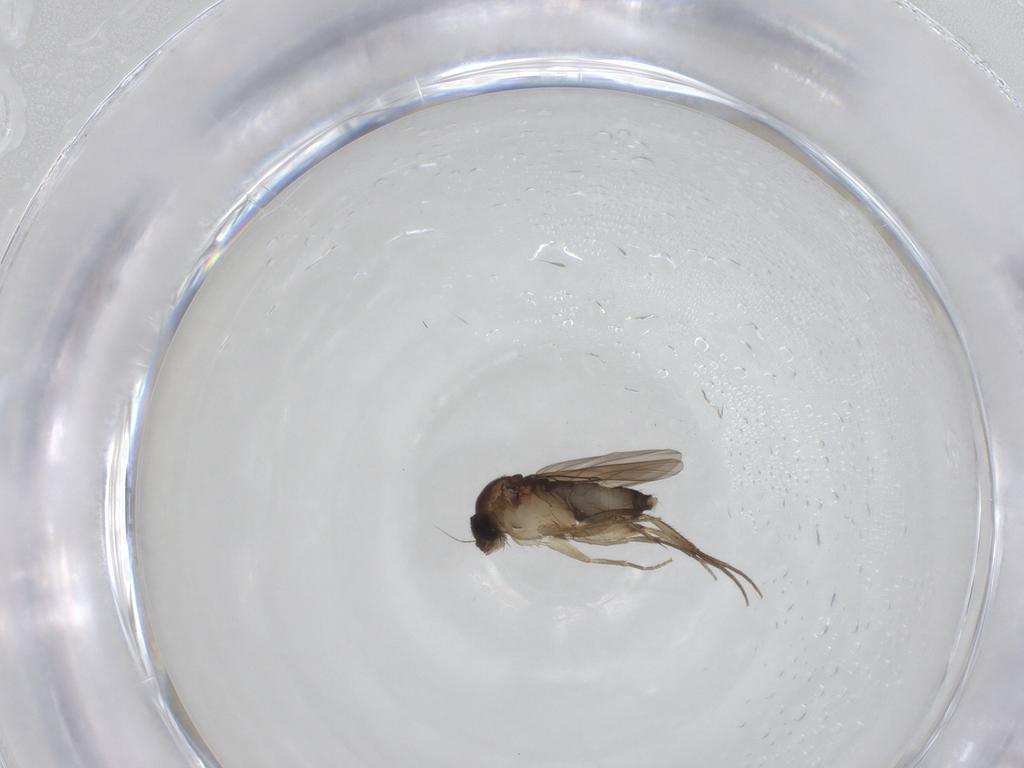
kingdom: Animalia
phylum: Arthropoda
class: Insecta
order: Diptera
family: Phoridae
